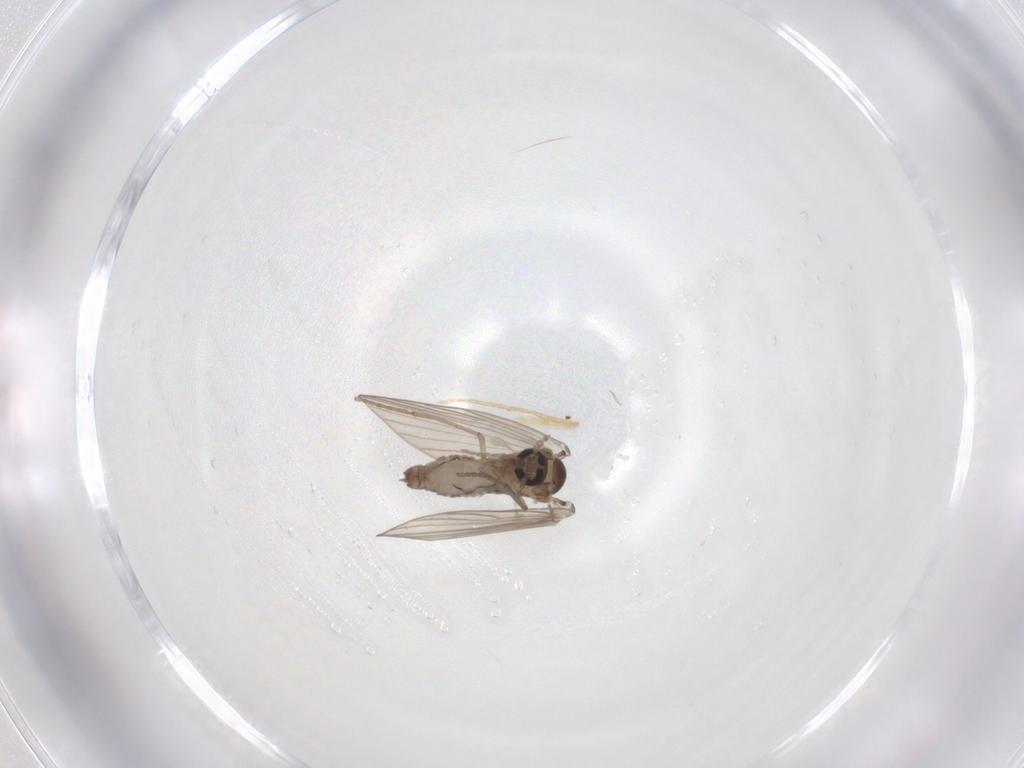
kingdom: Animalia
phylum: Arthropoda
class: Insecta
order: Diptera
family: Psychodidae
